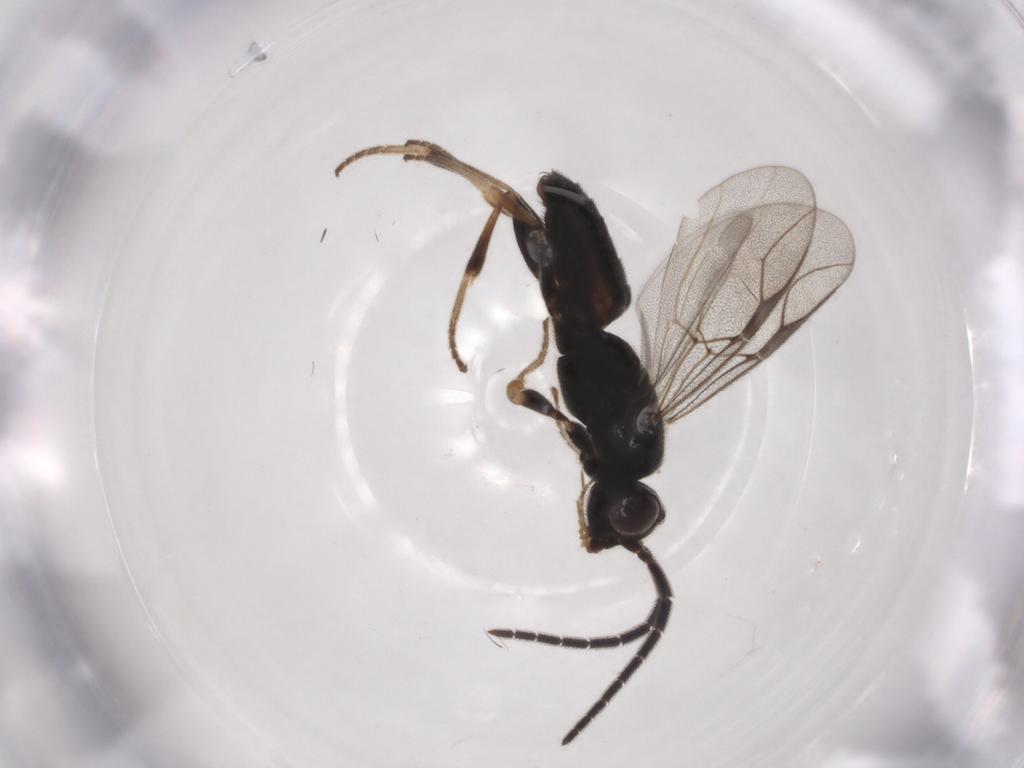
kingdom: Animalia
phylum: Arthropoda
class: Insecta
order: Hymenoptera
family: Dryinidae
